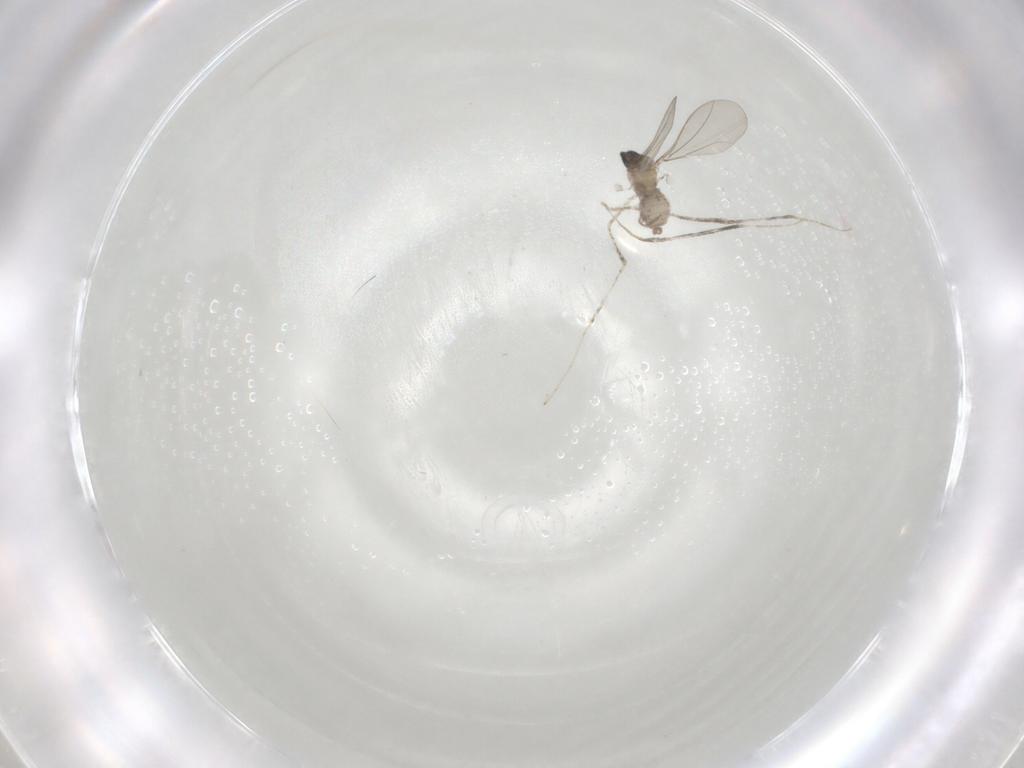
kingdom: Animalia
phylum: Arthropoda
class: Insecta
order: Diptera
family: Cecidomyiidae
